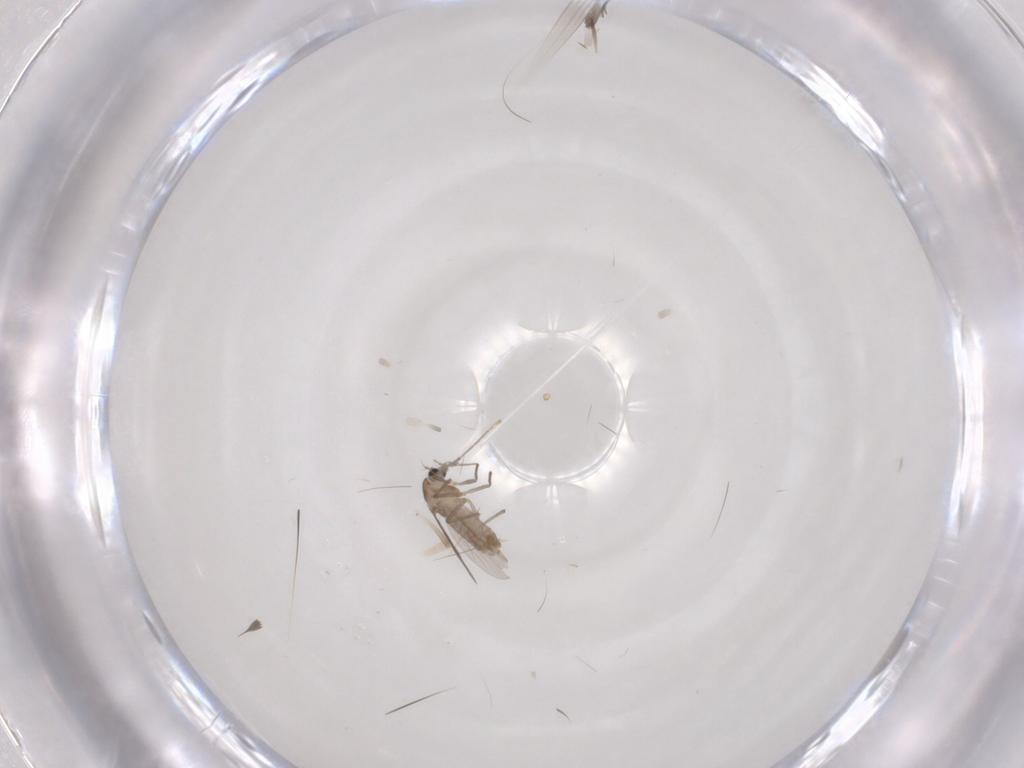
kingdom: Animalia
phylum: Arthropoda
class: Insecta
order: Diptera
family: Chironomidae
